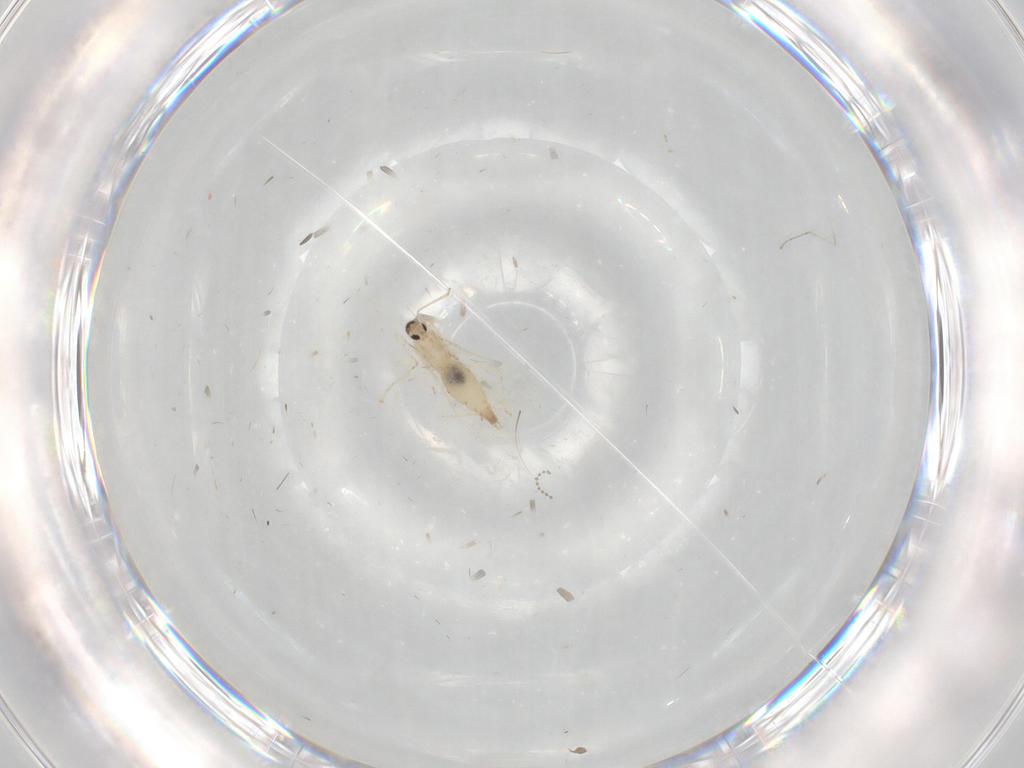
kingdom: Animalia
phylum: Arthropoda
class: Insecta
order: Diptera
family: Cecidomyiidae
